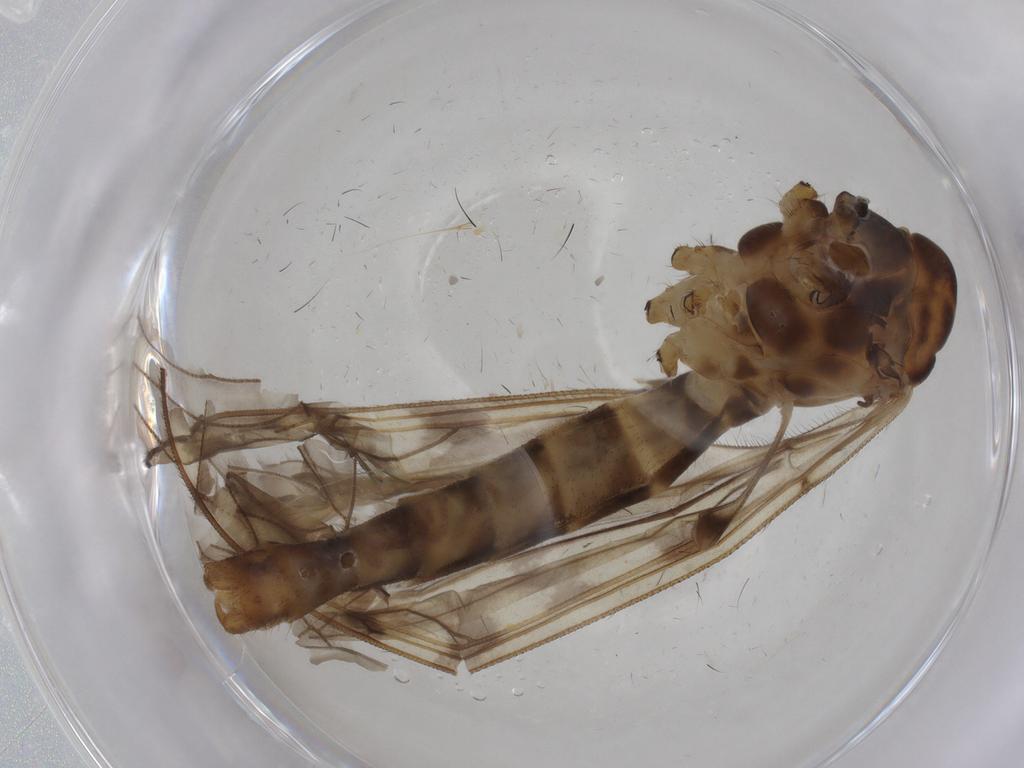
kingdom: Animalia
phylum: Arthropoda
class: Insecta
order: Diptera
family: Limoniidae
